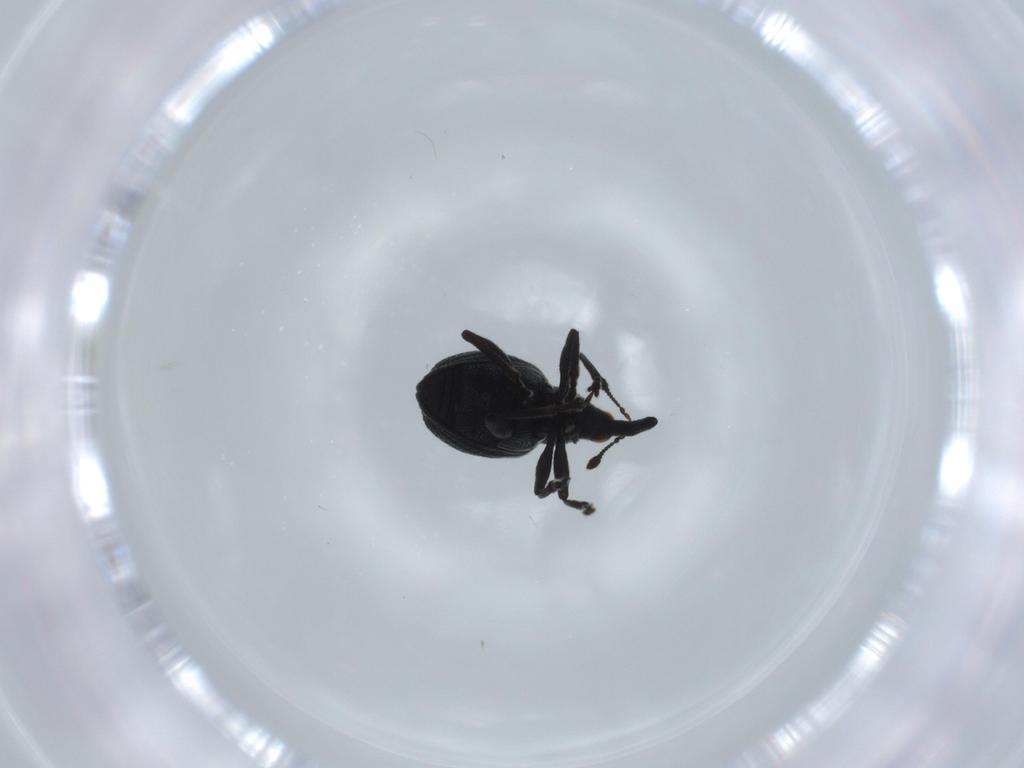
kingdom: Animalia
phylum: Arthropoda
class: Insecta
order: Coleoptera
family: Brentidae
